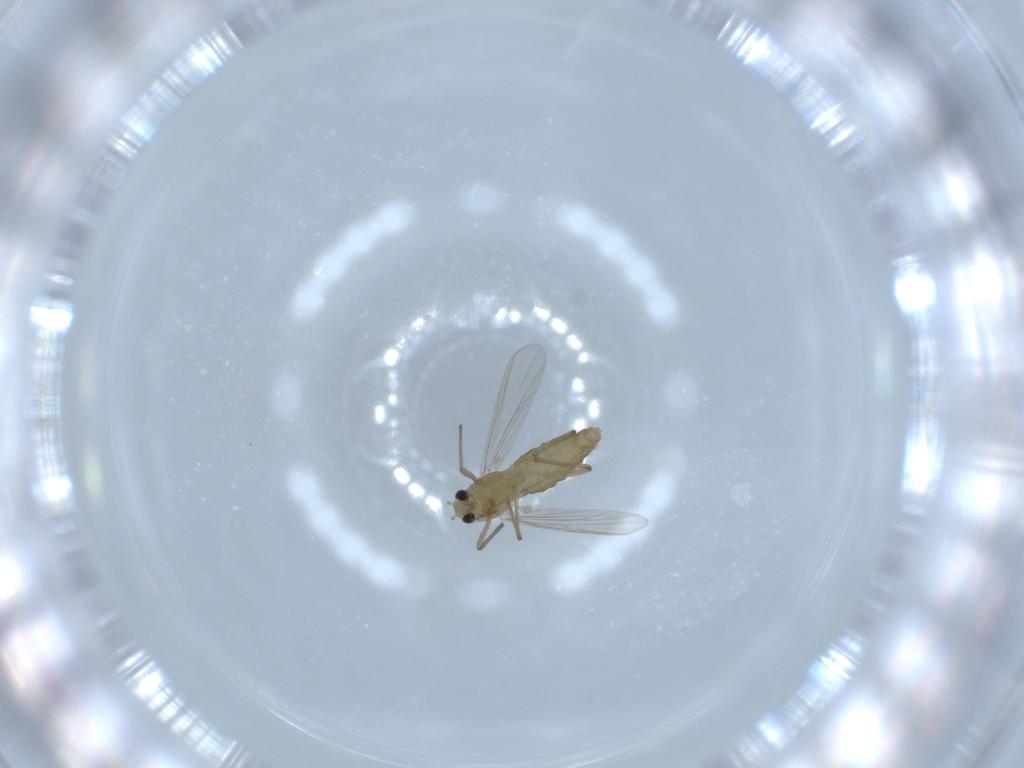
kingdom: Animalia
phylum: Arthropoda
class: Insecta
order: Diptera
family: Chironomidae
